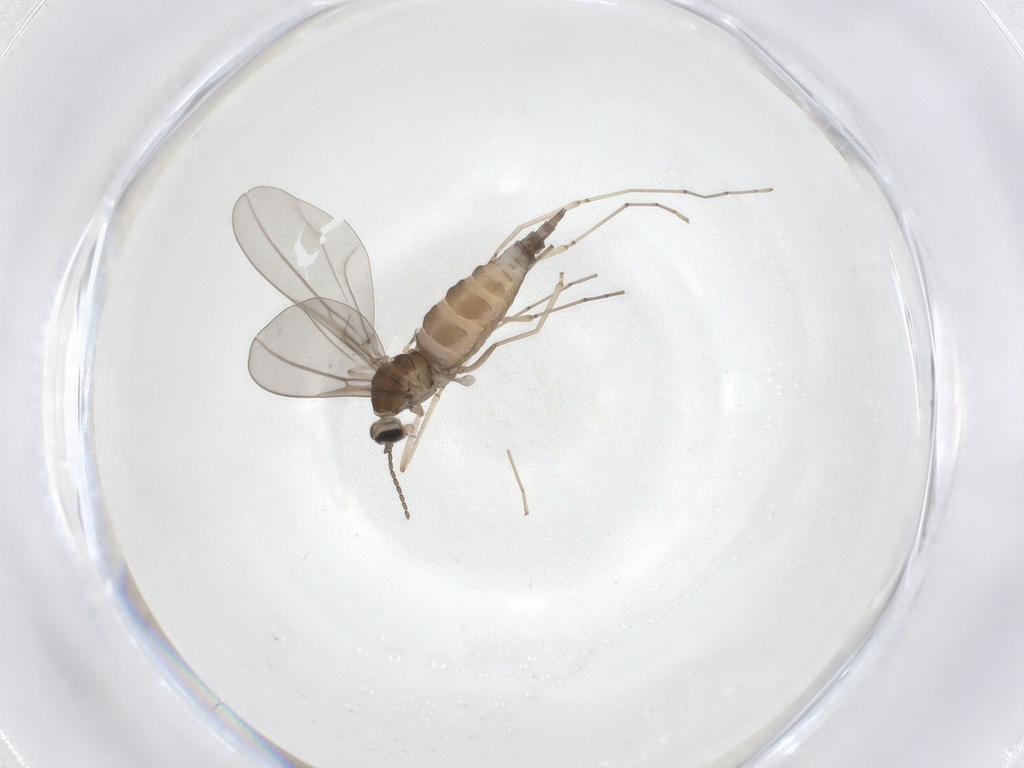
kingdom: Animalia
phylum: Arthropoda
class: Insecta
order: Diptera
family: Cecidomyiidae
